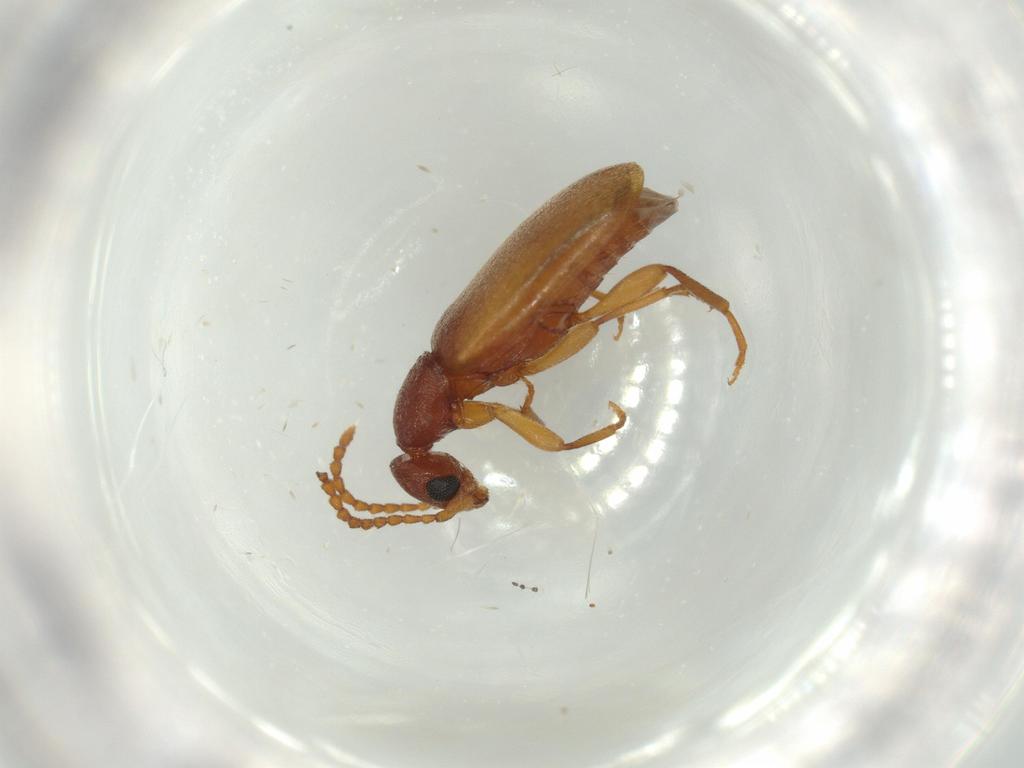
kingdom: Animalia
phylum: Arthropoda
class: Insecta
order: Coleoptera
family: Anthicidae
